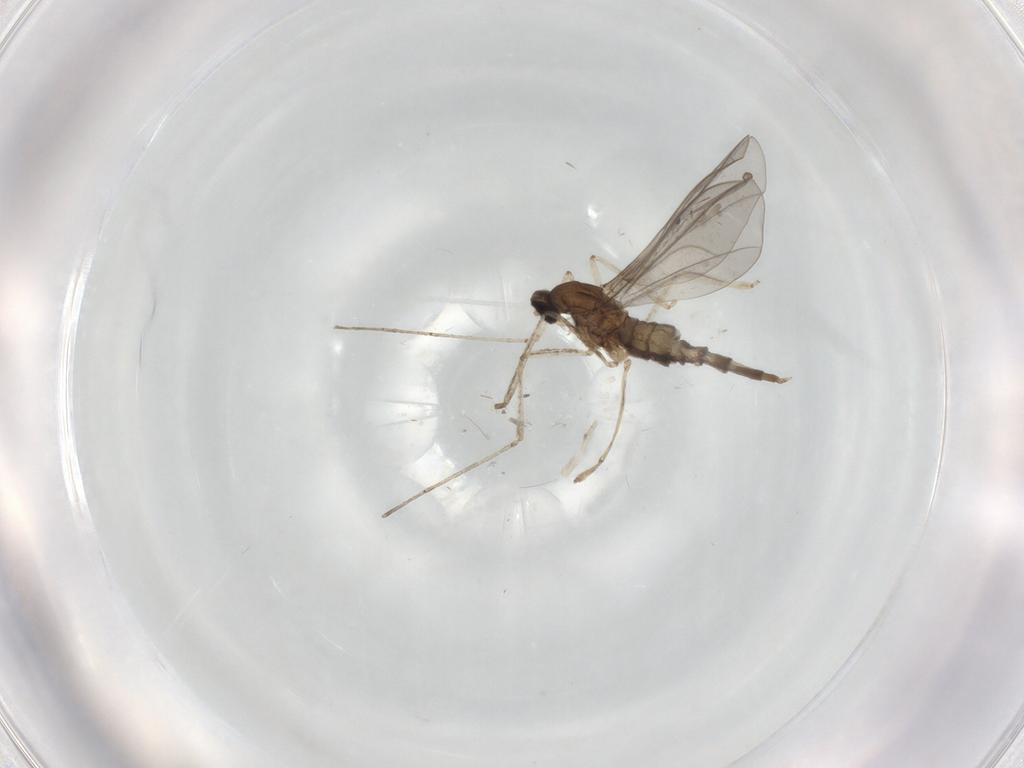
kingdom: Animalia
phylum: Arthropoda
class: Insecta
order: Diptera
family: Cecidomyiidae
